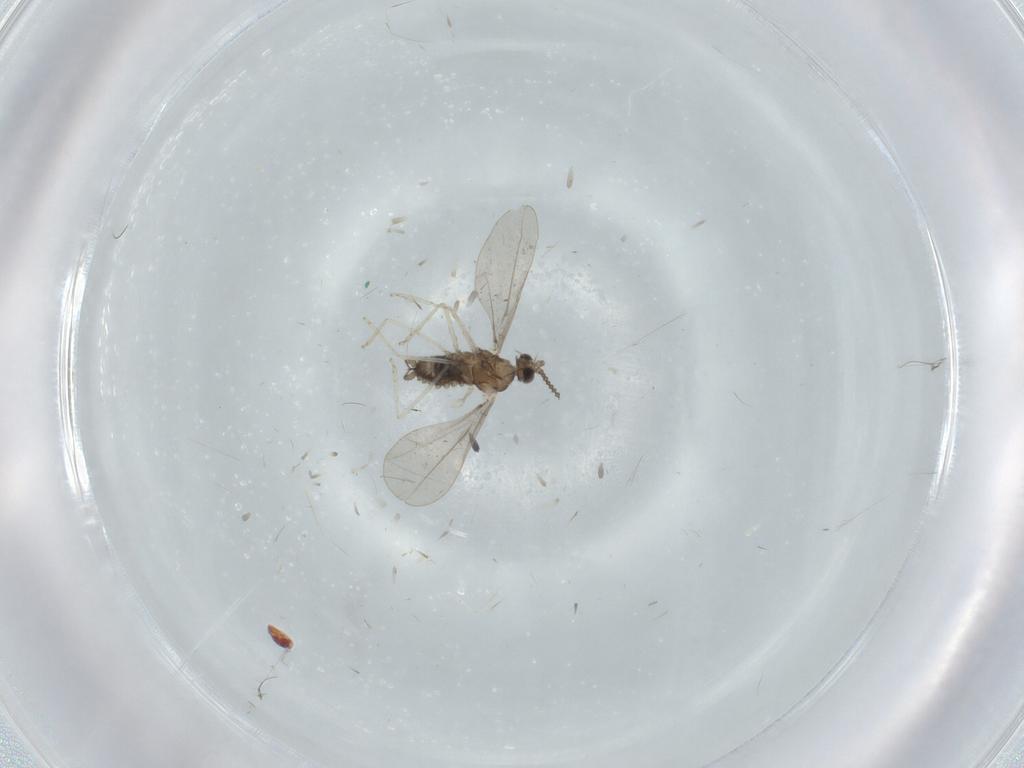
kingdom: Animalia
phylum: Arthropoda
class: Insecta
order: Diptera
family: Cecidomyiidae
